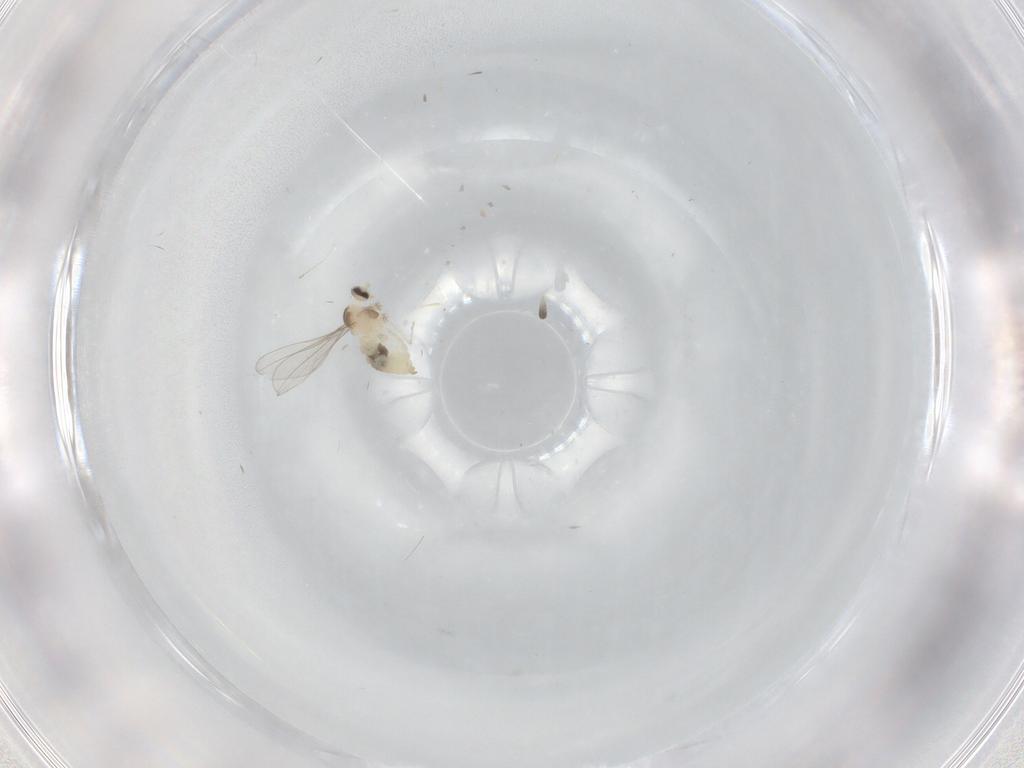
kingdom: Animalia
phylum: Arthropoda
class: Insecta
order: Diptera
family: Cecidomyiidae
